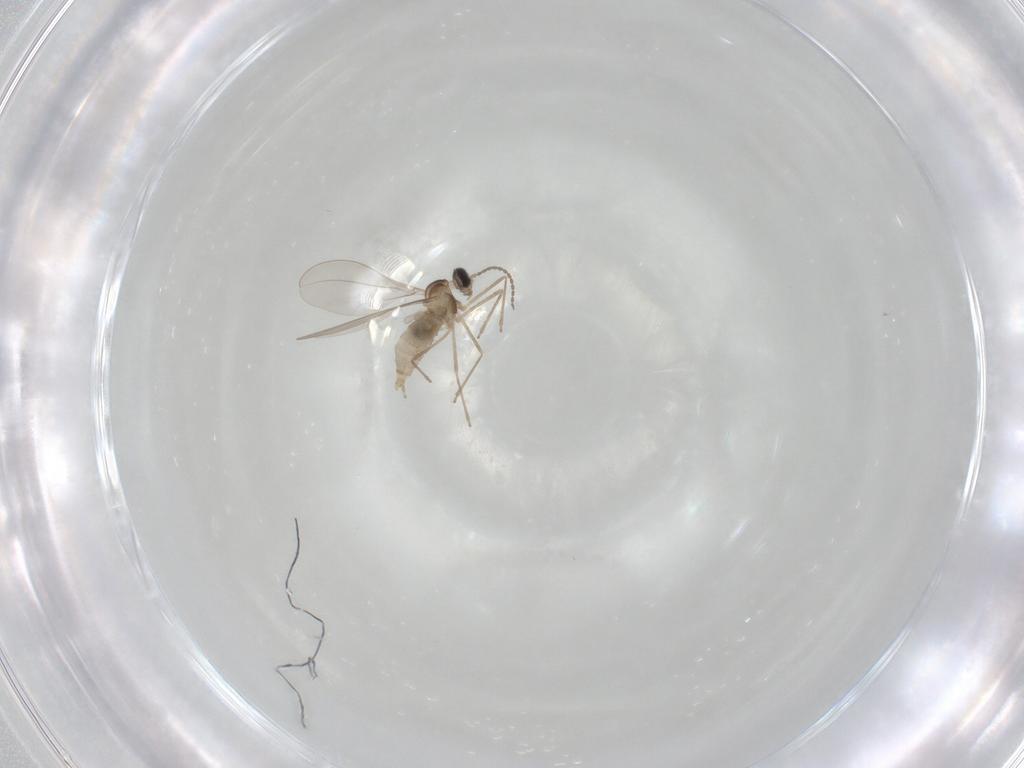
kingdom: Animalia
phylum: Arthropoda
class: Insecta
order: Diptera
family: Cecidomyiidae
